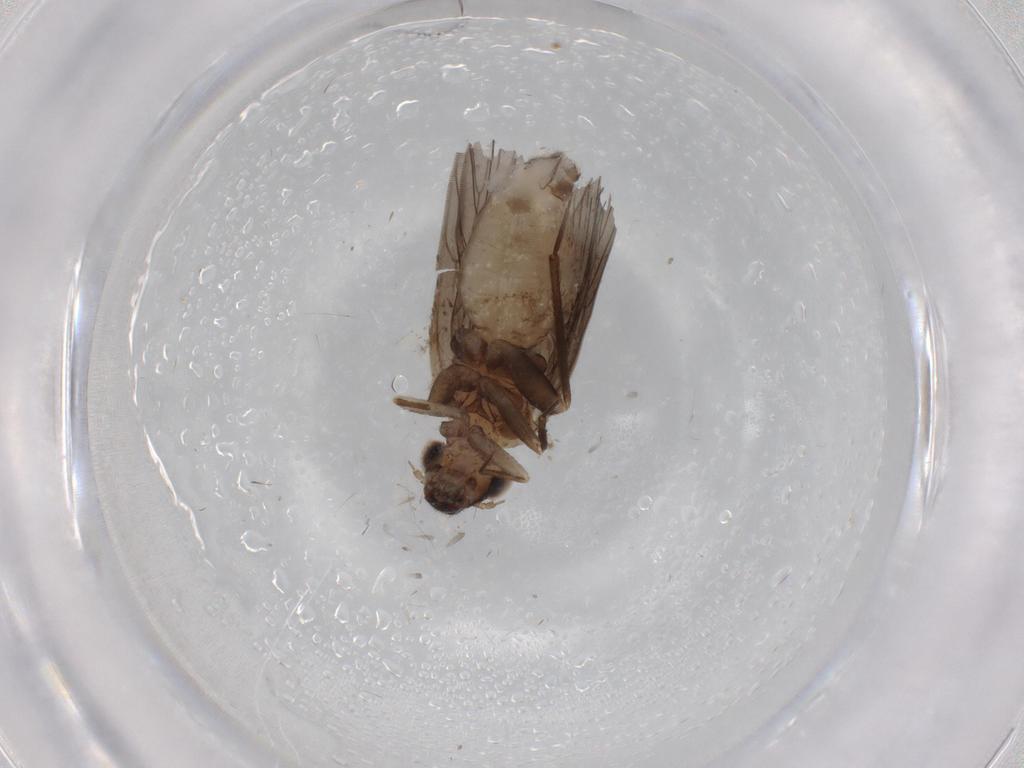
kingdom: Animalia
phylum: Arthropoda
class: Insecta
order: Psocodea
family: Lepidopsocidae
